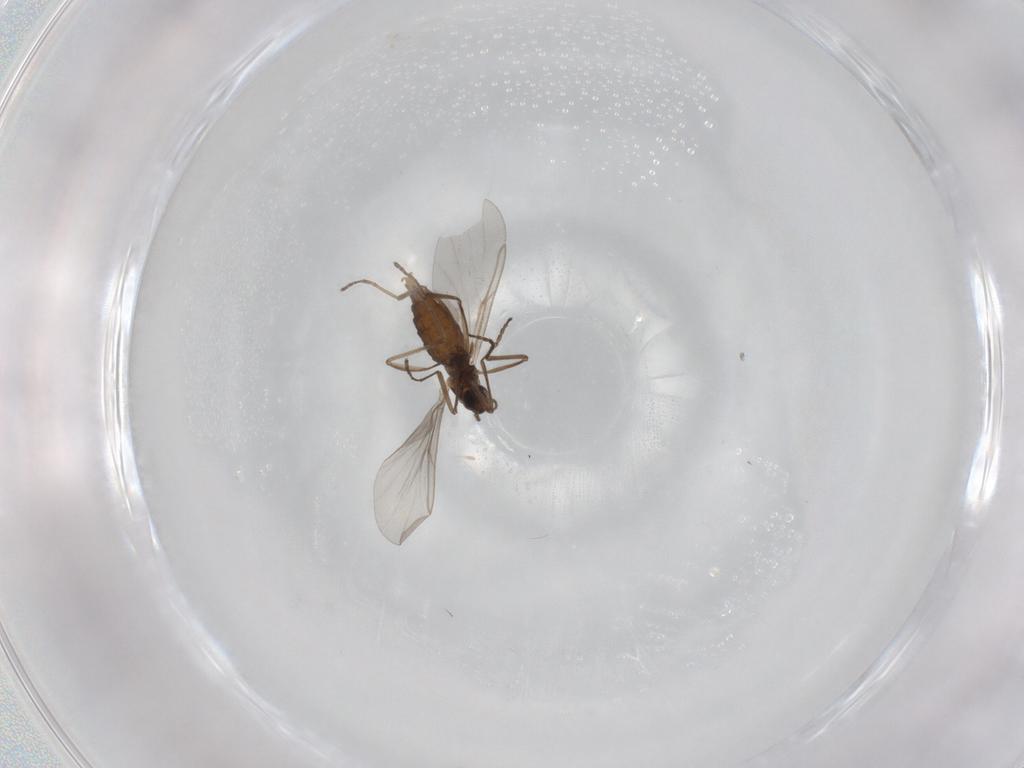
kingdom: Animalia
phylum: Arthropoda
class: Insecta
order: Diptera
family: Cecidomyiidae
